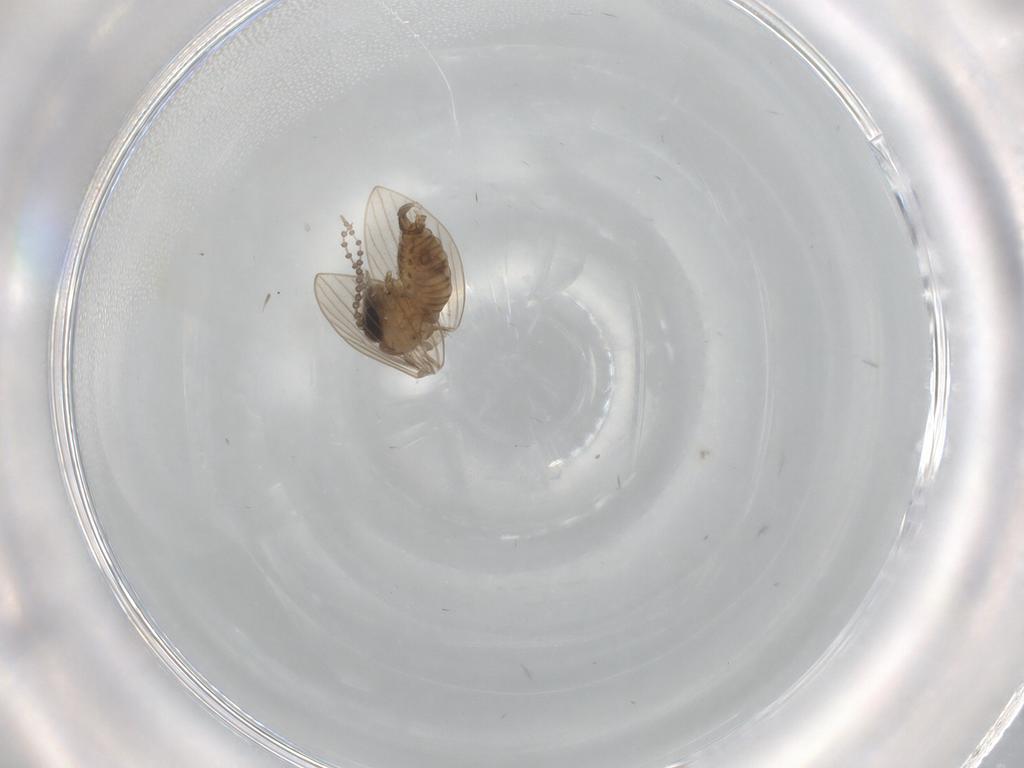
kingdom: Animalia
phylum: Arthropoda
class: Insecta
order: Diptera
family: Psychodidae
